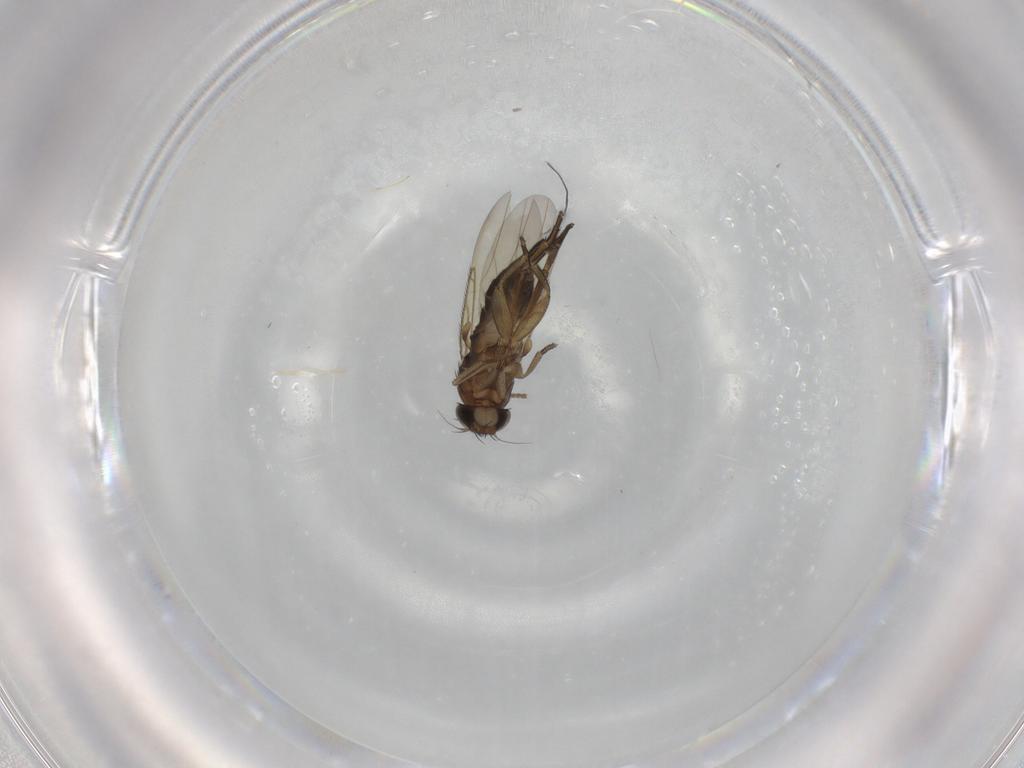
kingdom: Animalia
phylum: Arthropoda
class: Insecta
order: Diptera
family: Phoridae
